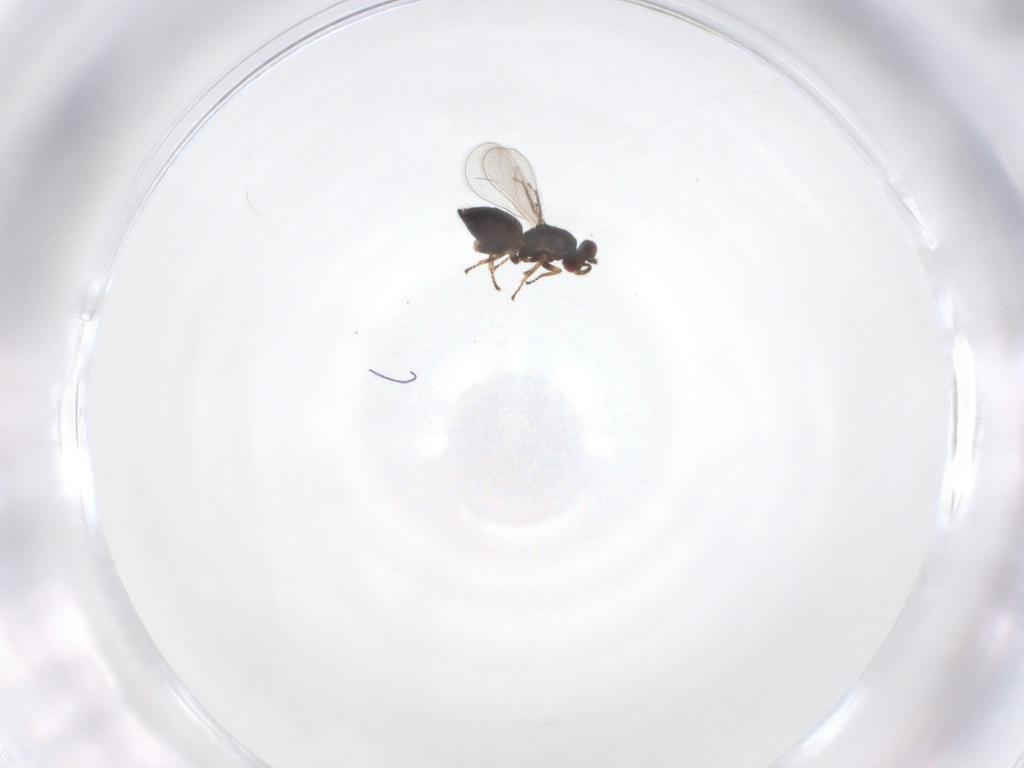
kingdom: Animalia
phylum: Arthropoda
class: Insecta
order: Hymenoptera
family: Eulophidae
